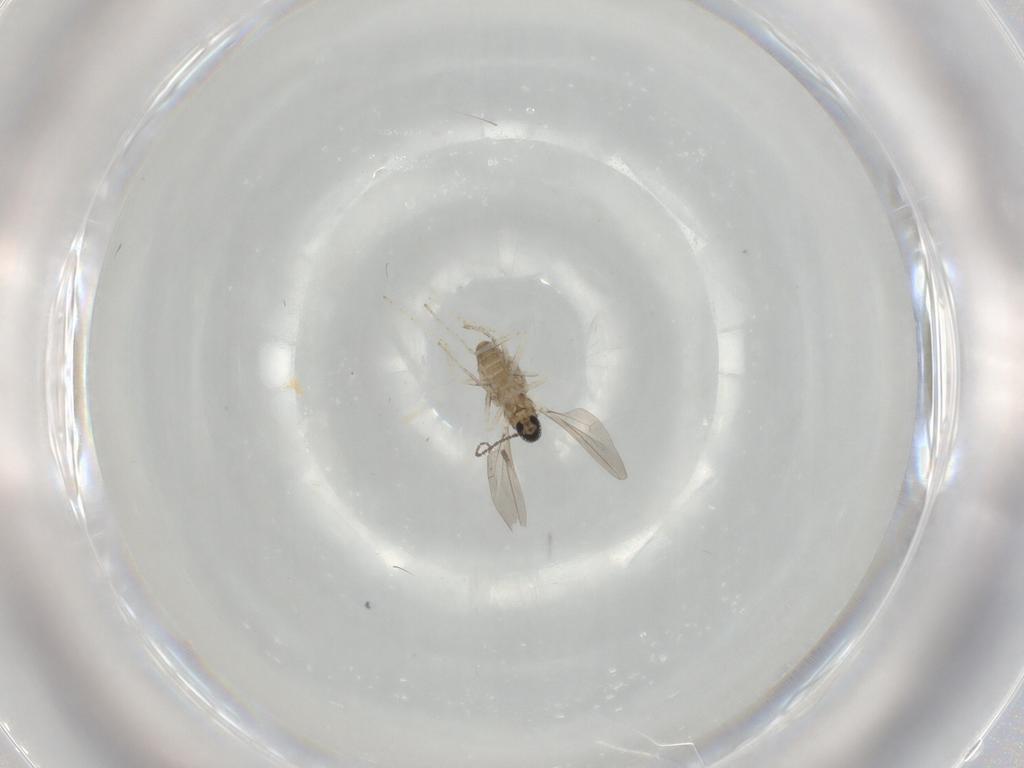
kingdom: Animalia
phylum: Arthropoda
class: Insecta
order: Diptera
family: Cecidomyiidae
